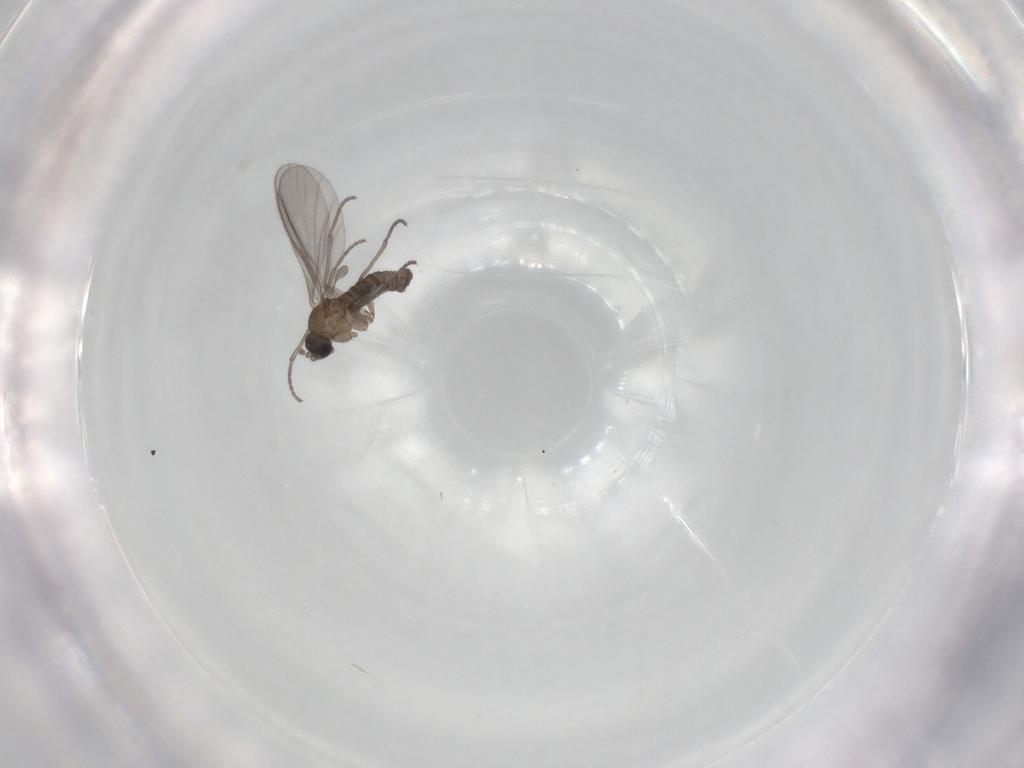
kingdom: Animalia
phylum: Arthropoda
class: Insecta
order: Diptera
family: Sciaridae
